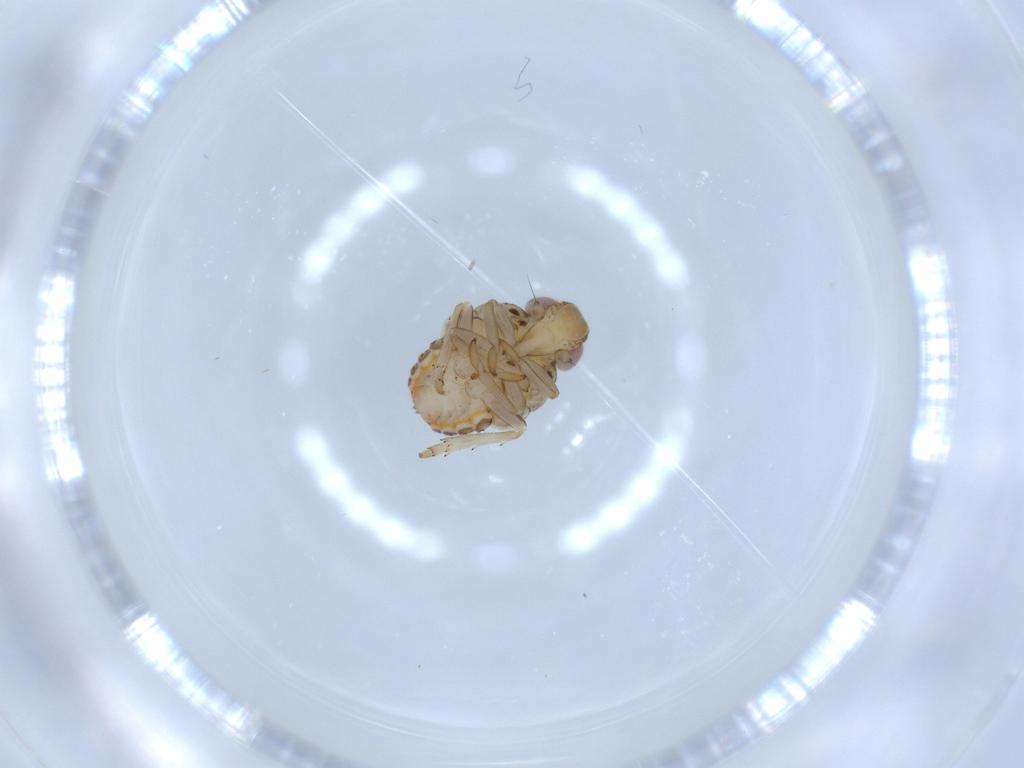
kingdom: Animalia
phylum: Arthropoda
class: Insecta
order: Hemiptera
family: Issidae
